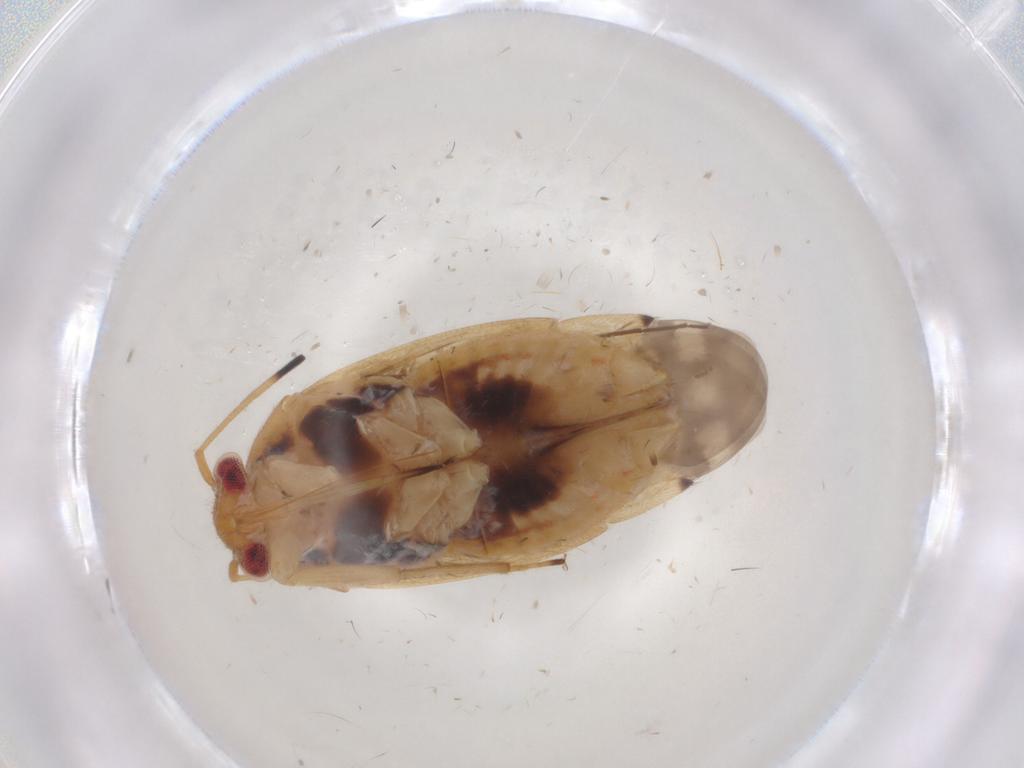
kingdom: Animalia
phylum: Arthropoda
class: Insecta
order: Hemiptera
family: Miridae
